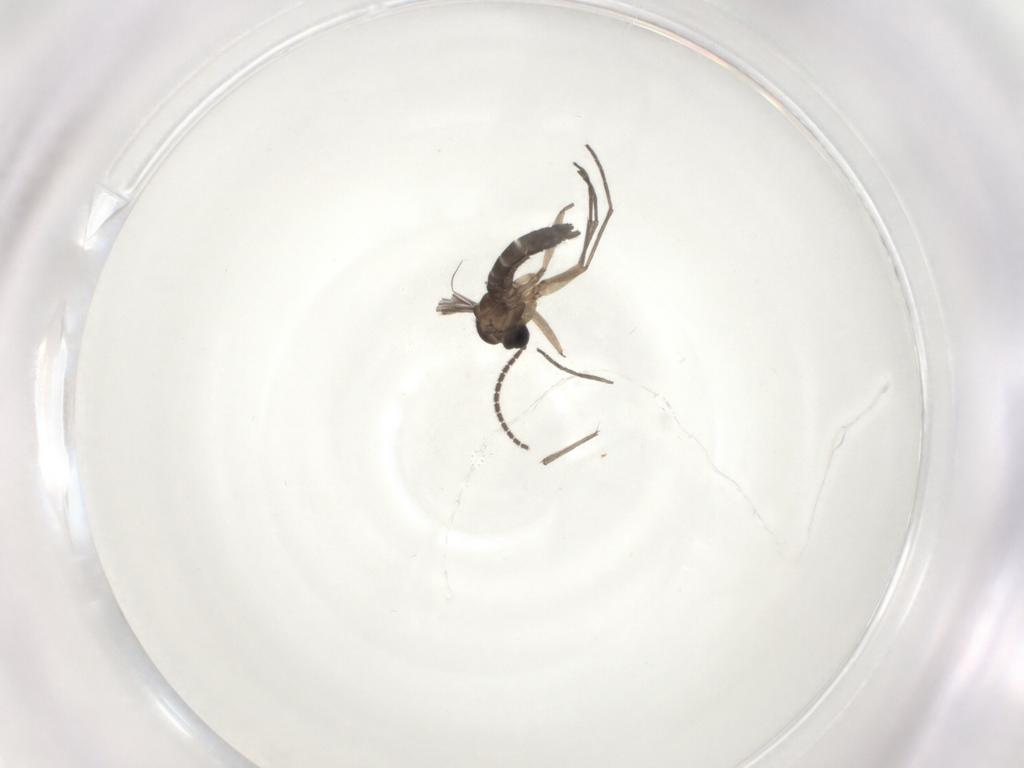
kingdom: Animalia
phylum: Arthropoda
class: Insecta
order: Diptera
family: Sciaridae
